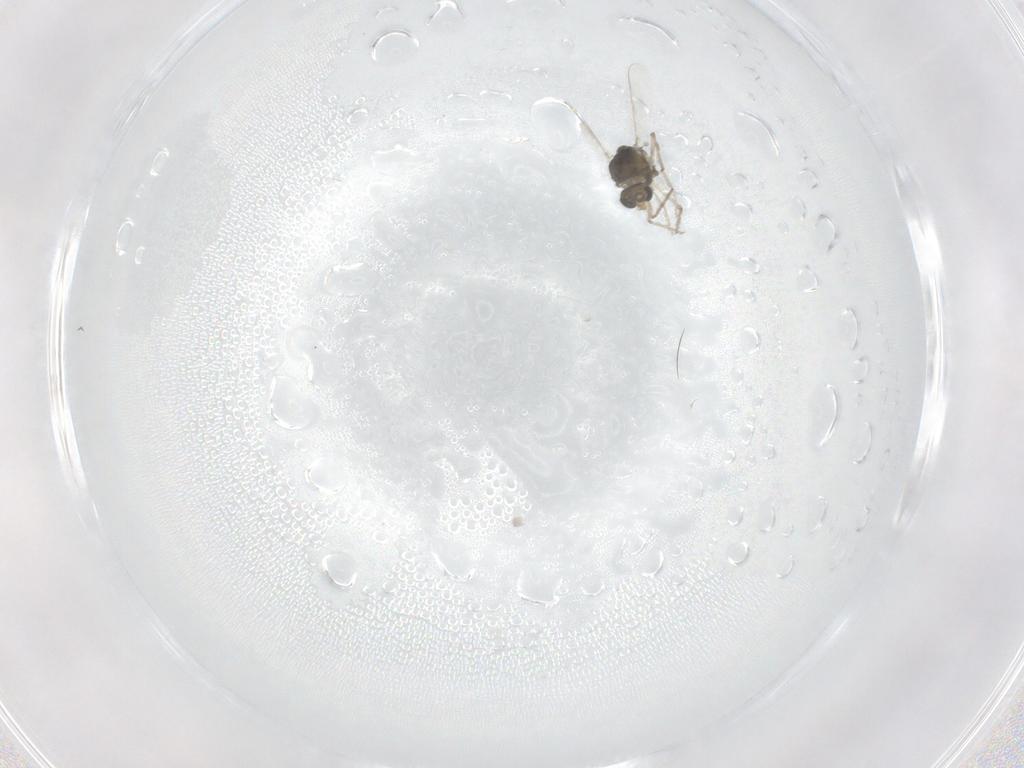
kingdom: Animalia
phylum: Arthropoda
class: Insecta
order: Diptera
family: Chironomidae
